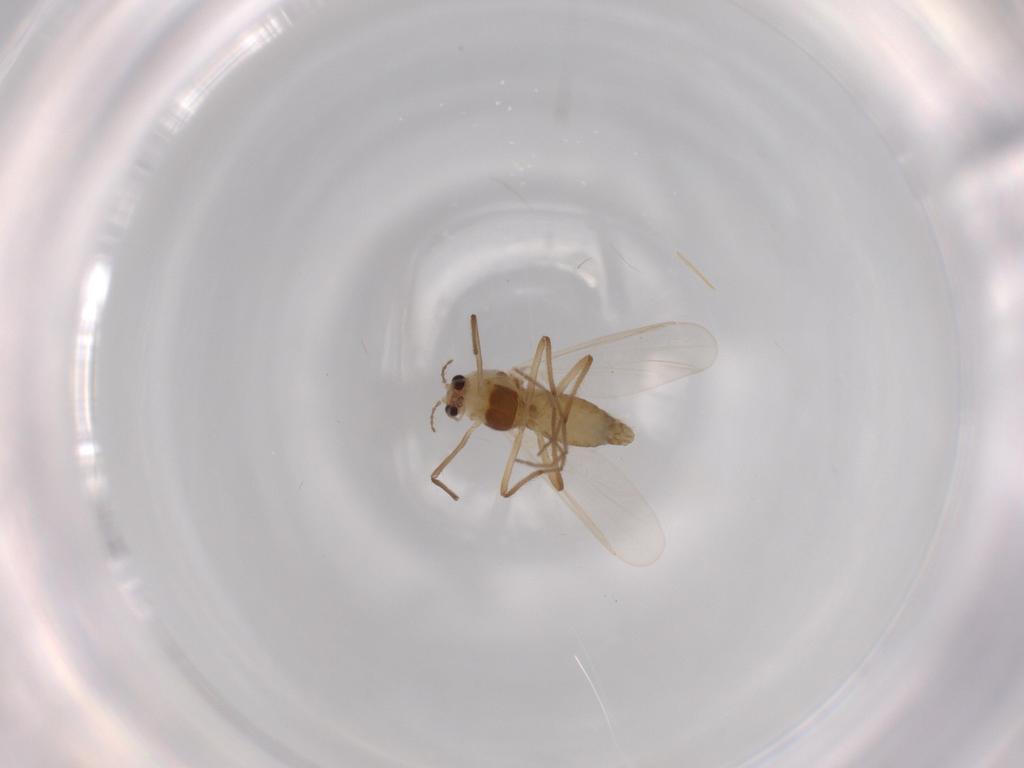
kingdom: Animalia
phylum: Arthropoda
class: Insecta
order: Diptera
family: Chironomidae
